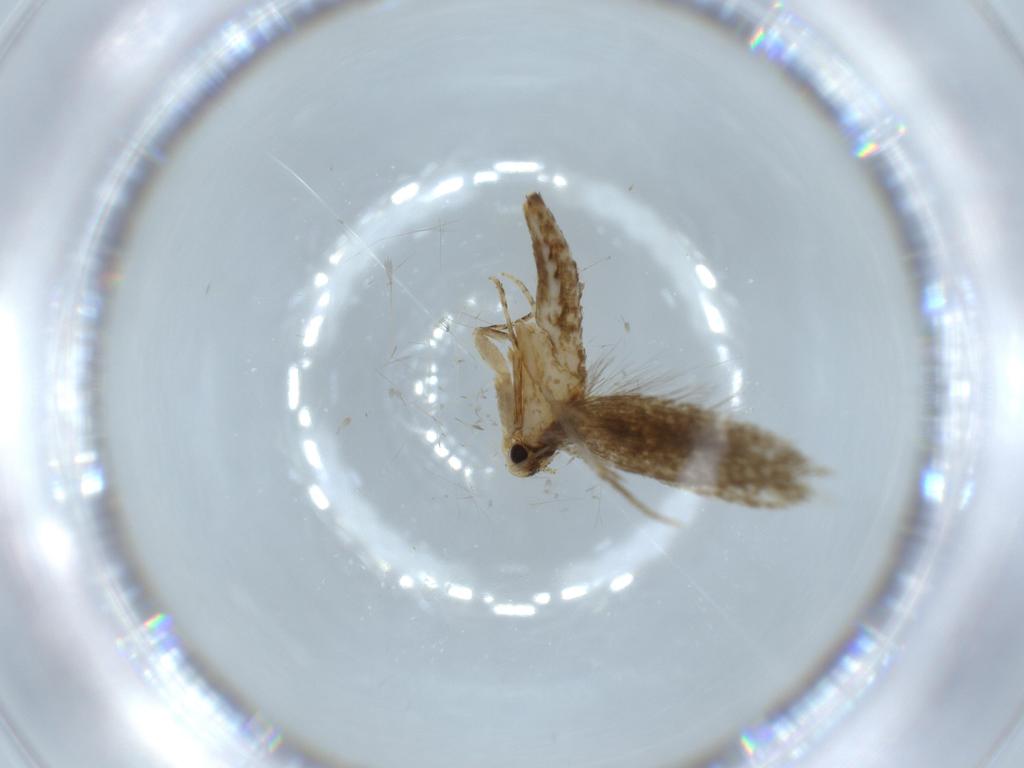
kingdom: Animalia
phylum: Arthropoda
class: Insecta
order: Lepidoptera
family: Tineidae
